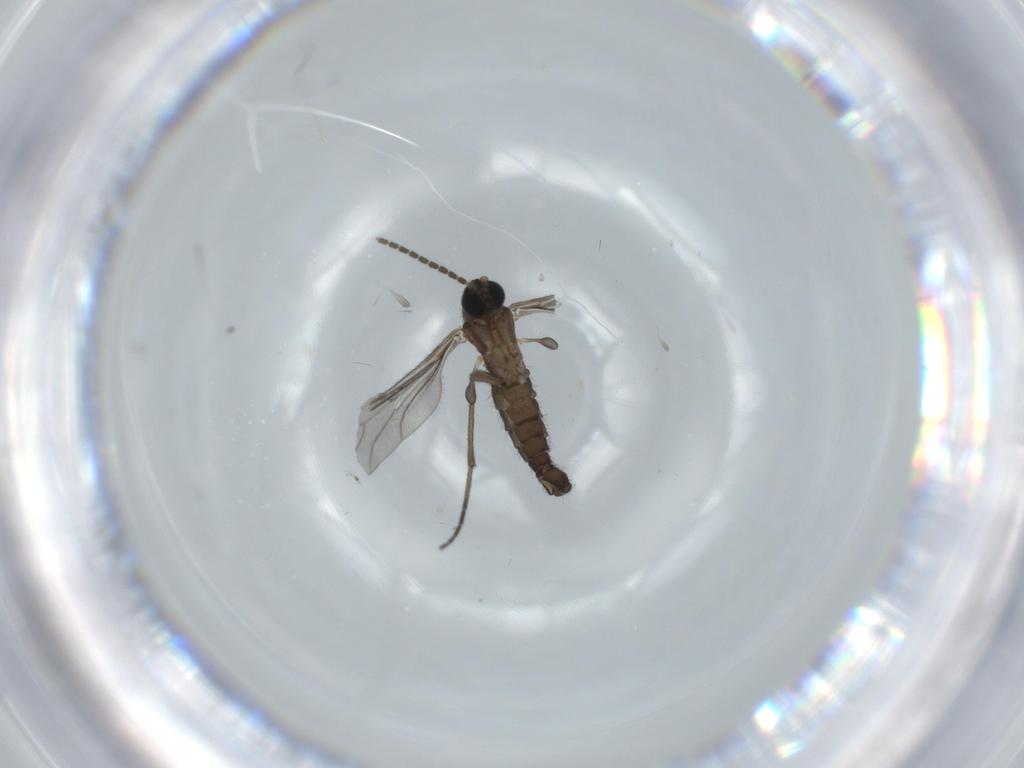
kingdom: Animalia
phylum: Arthropoda
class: Insecta
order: Diptera
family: Sciaridae
